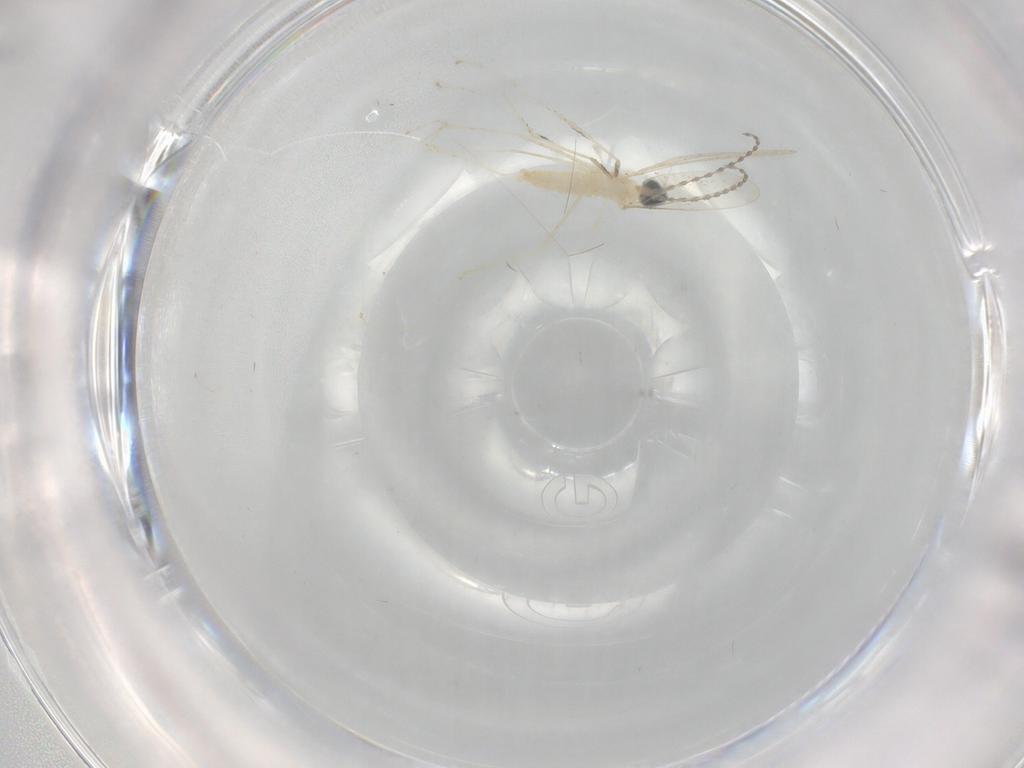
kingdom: Animalia
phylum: Arthropoda
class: Insecta
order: Diptera
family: Cecidomyiidae
